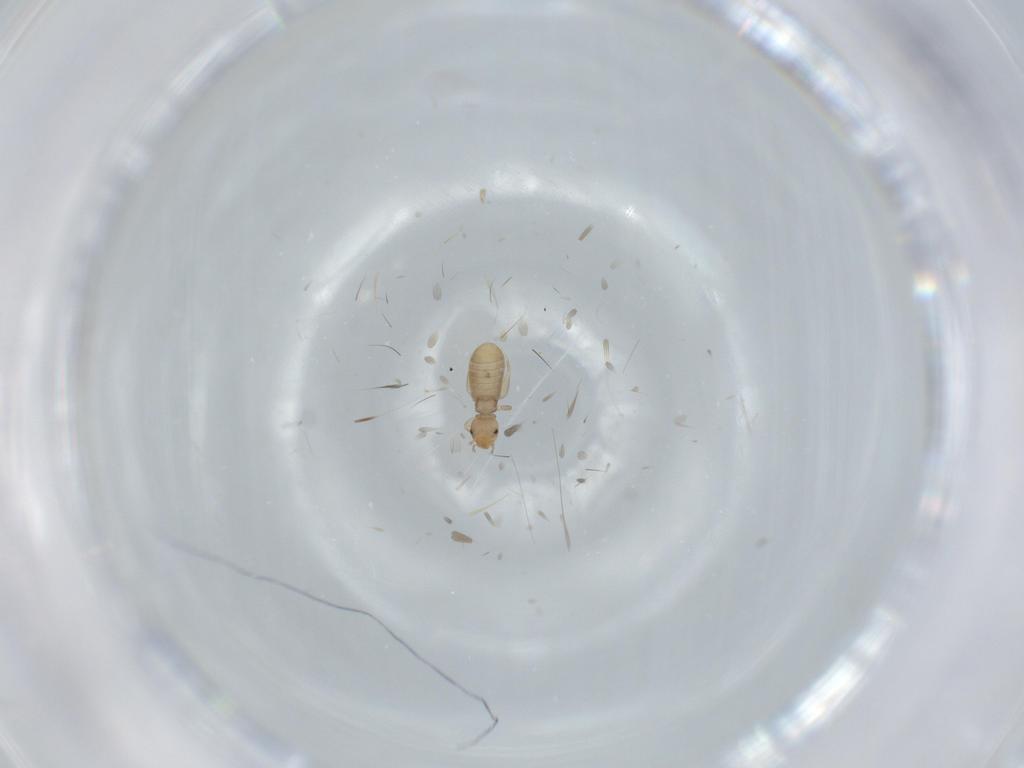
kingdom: Animalia
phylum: Arthropoda
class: Insecta
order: Psocodea
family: Liposcelididae
